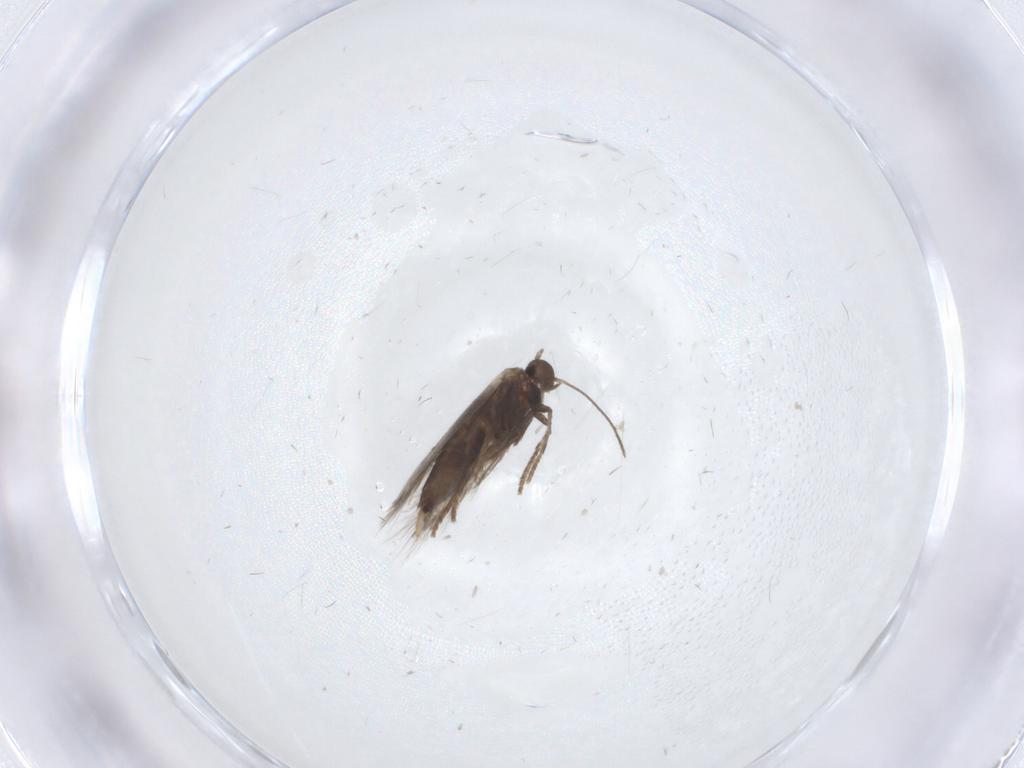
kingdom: Animalia
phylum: Arthropoda
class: Insecta
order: Lepidoptera
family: Heliozelidae
